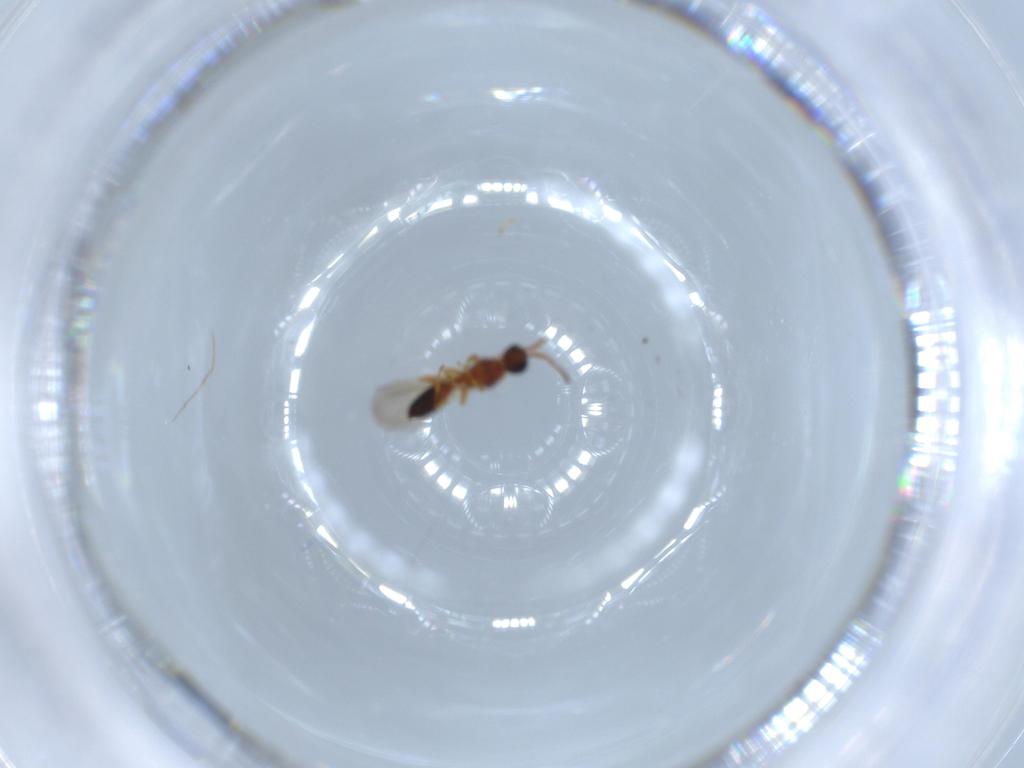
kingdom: Animalia
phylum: Arthropoda
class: Insecta
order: Hymenoptera
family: Diapriidae
